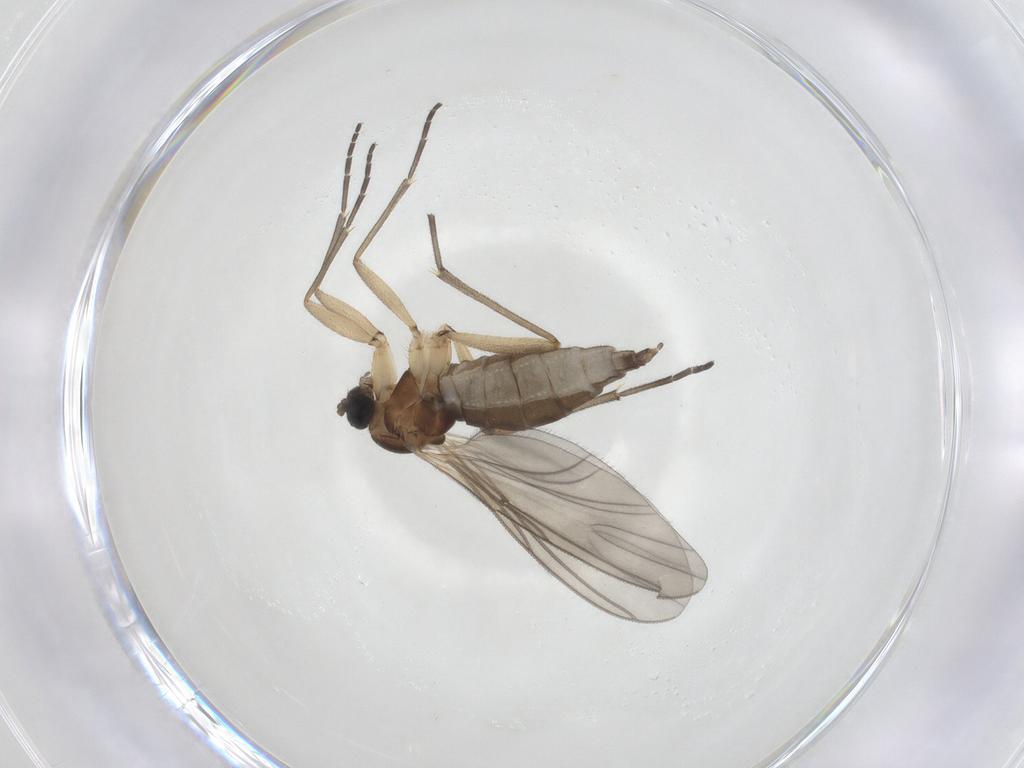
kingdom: Animalia
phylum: Arthropoda
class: Insecta
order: Diptera
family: Sciaridae
